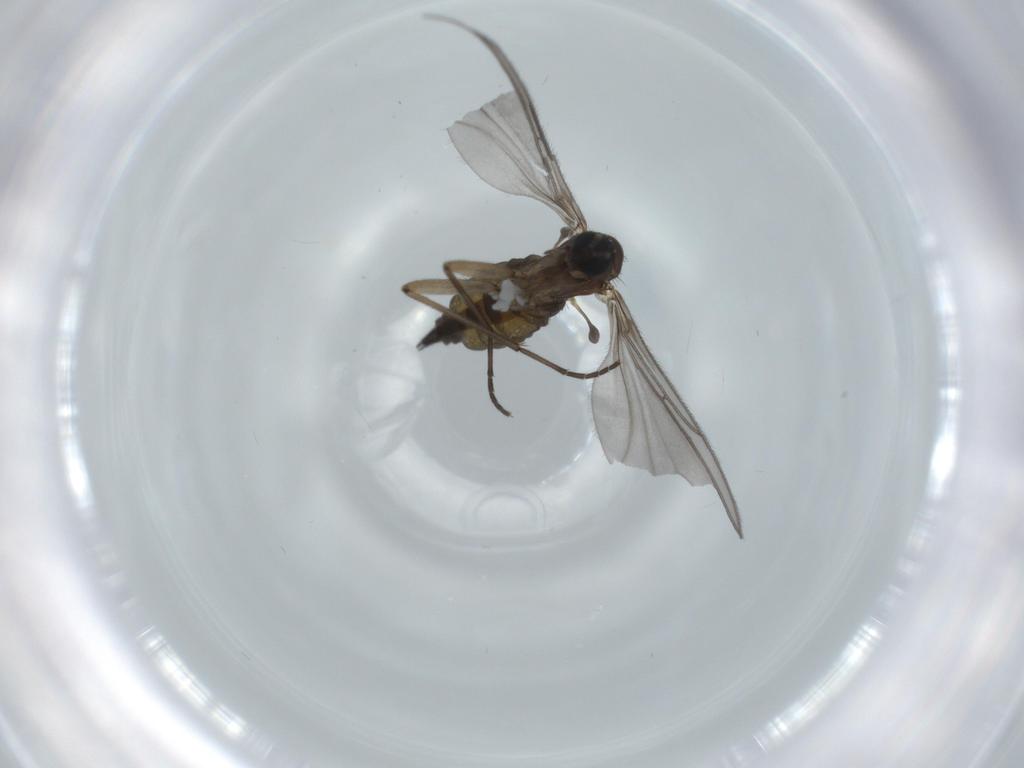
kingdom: Animalia
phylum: Arthropoda
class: Insecta
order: Diptera
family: Sciaridae
